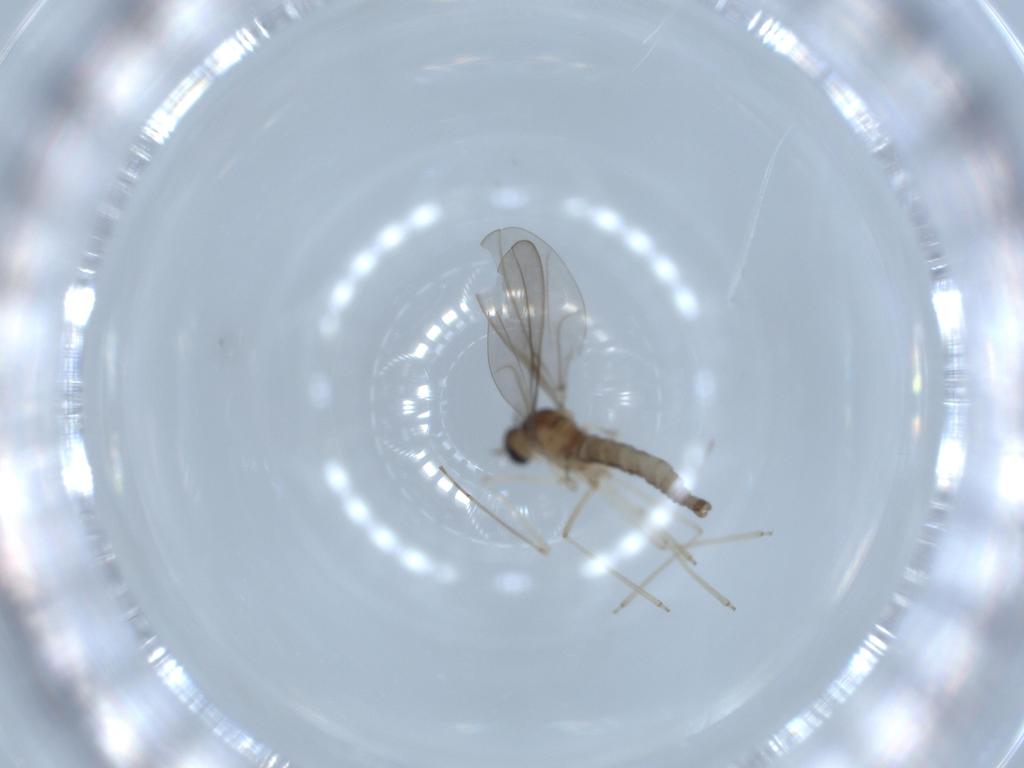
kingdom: Animalia
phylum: Arthropoda
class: Insecta
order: Diptera
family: Cecidomyiidae
